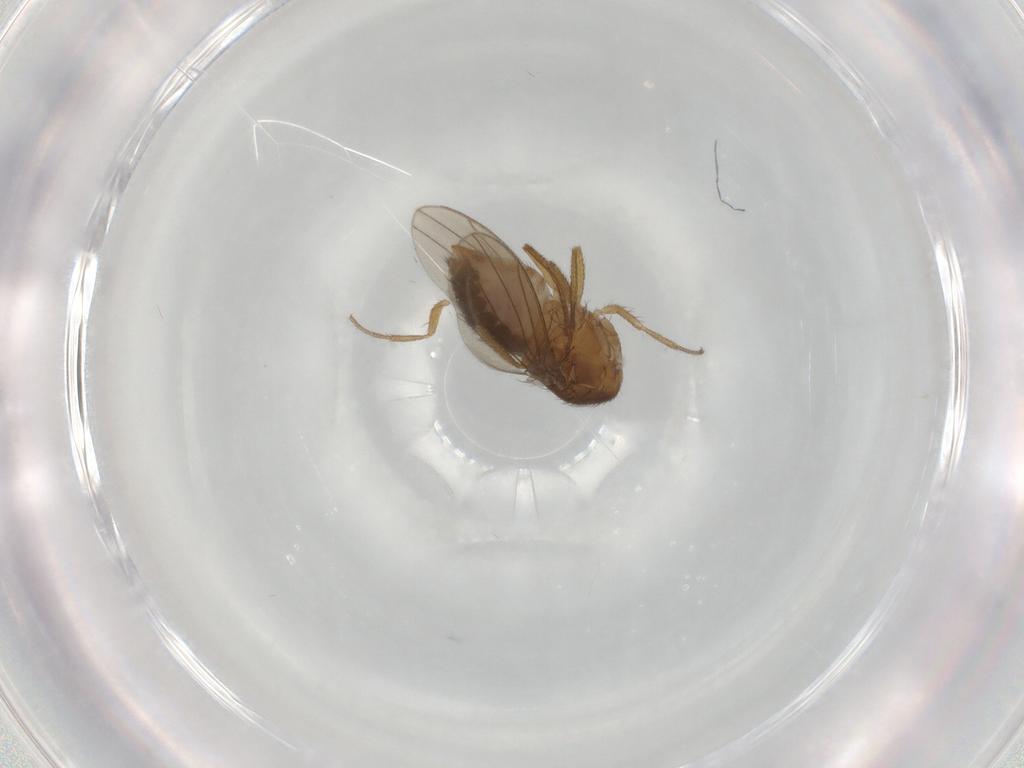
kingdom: Animalia
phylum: Arthropoda
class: Insecta
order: Diptera
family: Drosophilidae
